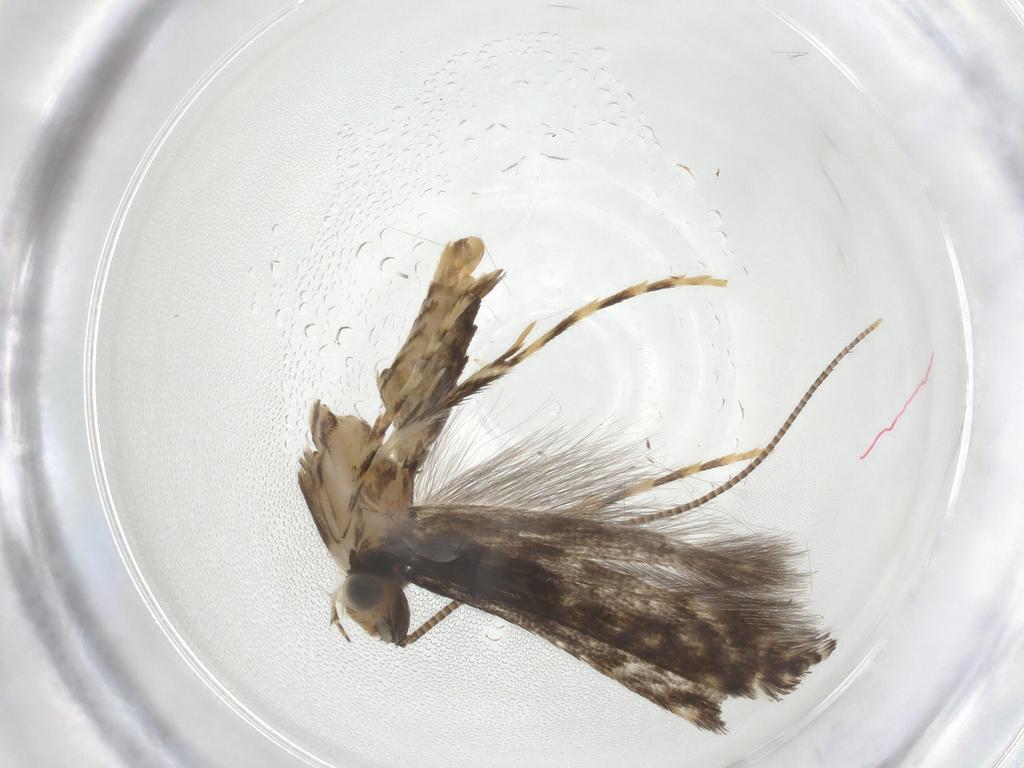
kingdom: Animalia
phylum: Arthropoda
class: Insecta
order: Lepidoptera
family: Gracillariidae
